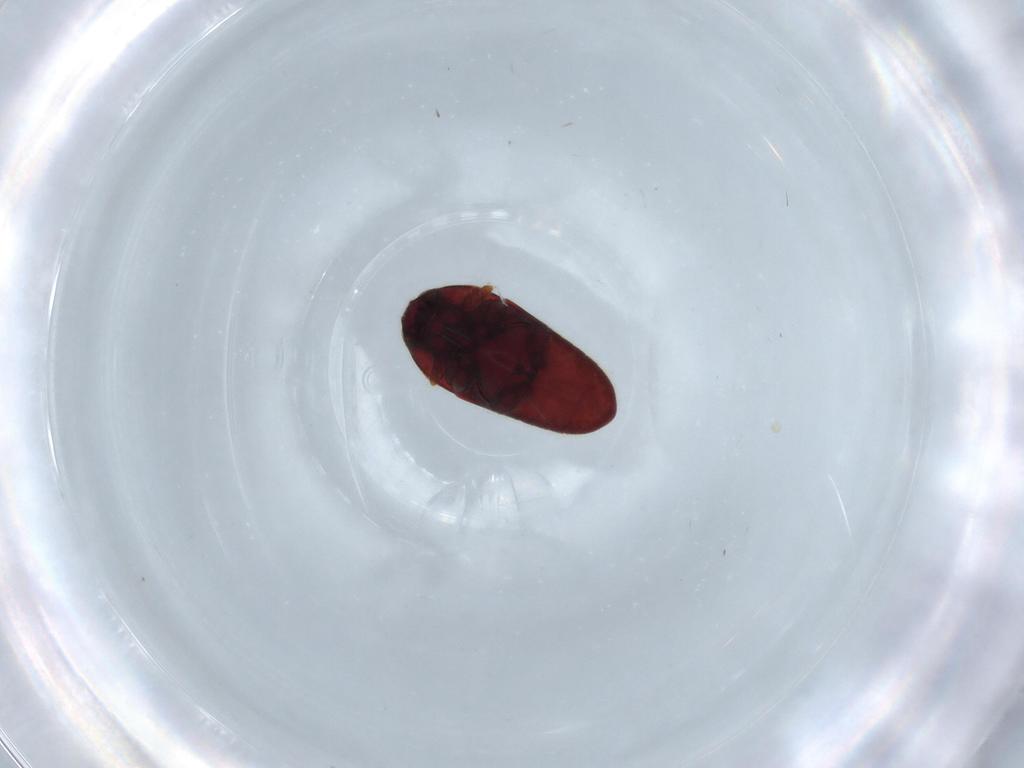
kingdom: Animalia
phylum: Arthropoda
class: Insecta
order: Coleoptera
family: Throscidae
